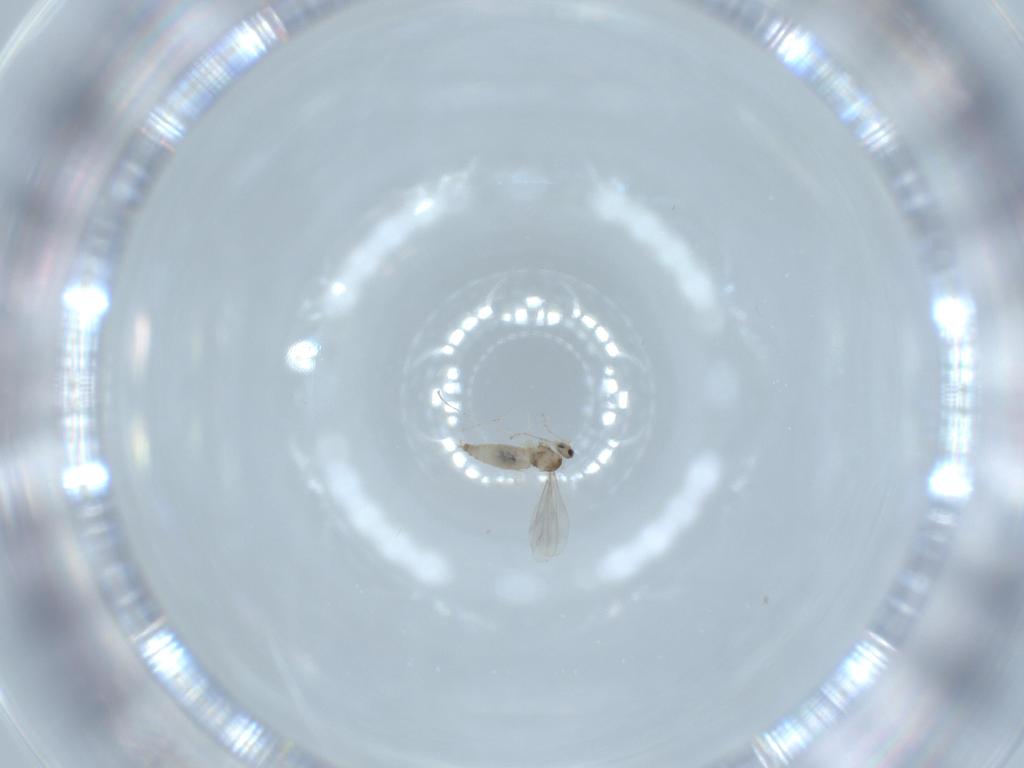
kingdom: Animalia
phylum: Arthropoda
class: Insecta
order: Diptera
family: Cecidomyiidae
